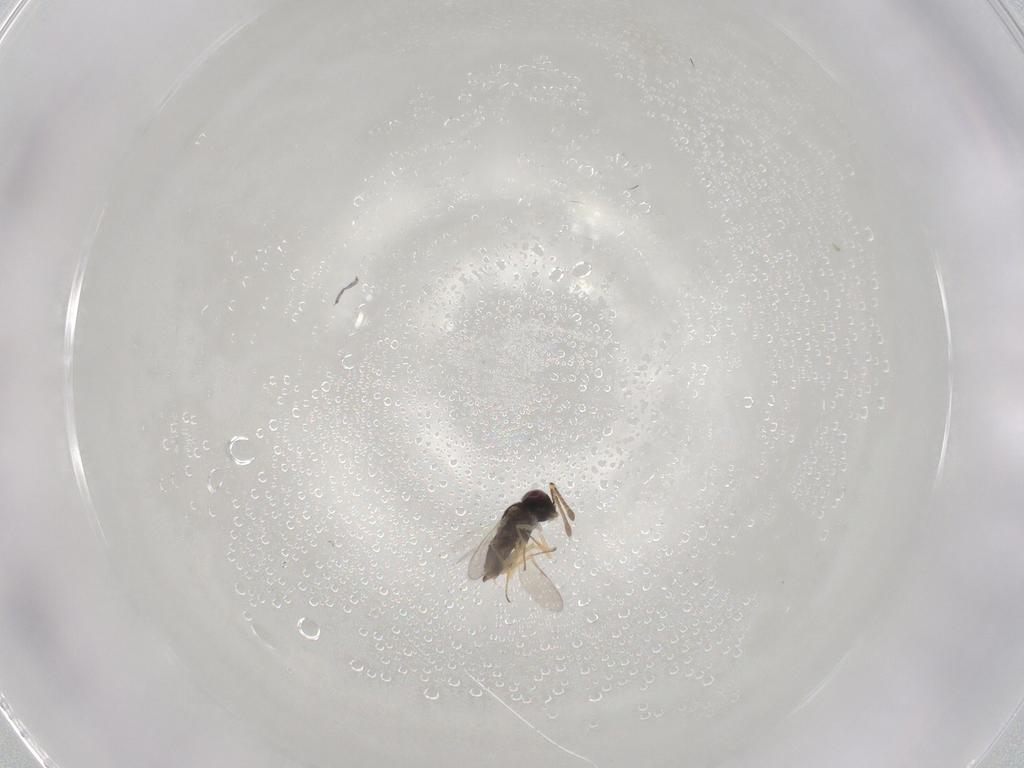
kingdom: Animalia
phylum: Arthropoda
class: Insecta
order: Hymenoptera
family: Encyrtidae
